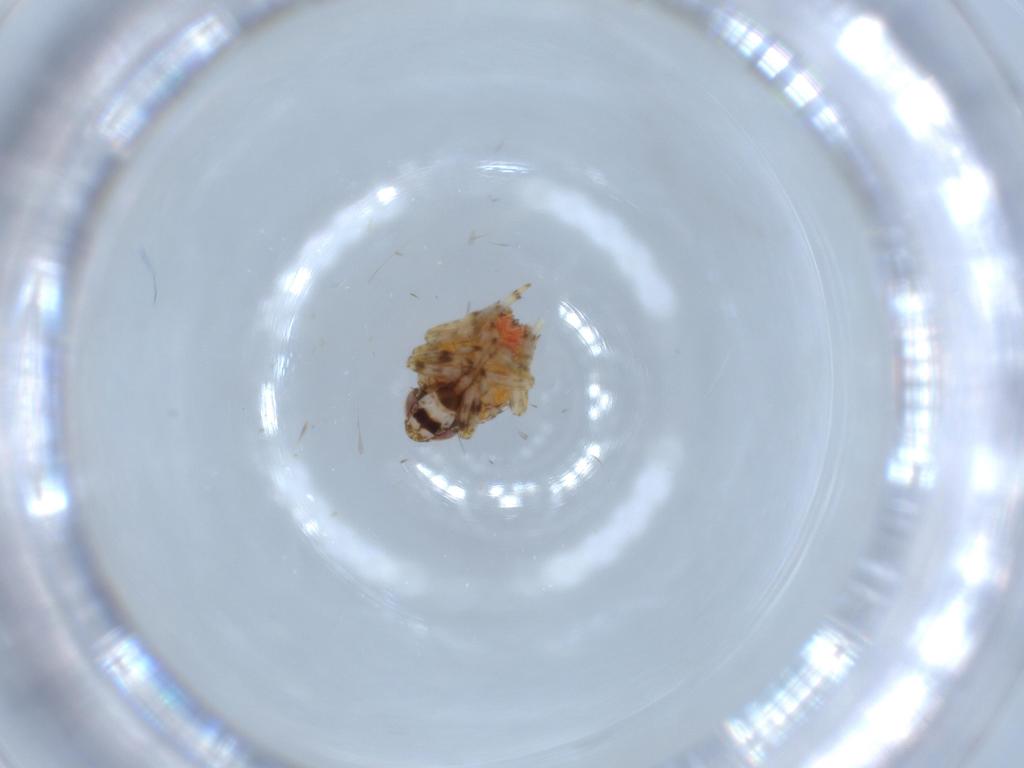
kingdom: Animalia
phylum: Arthropoda
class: Insecta
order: Hemiptera
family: Issidae
